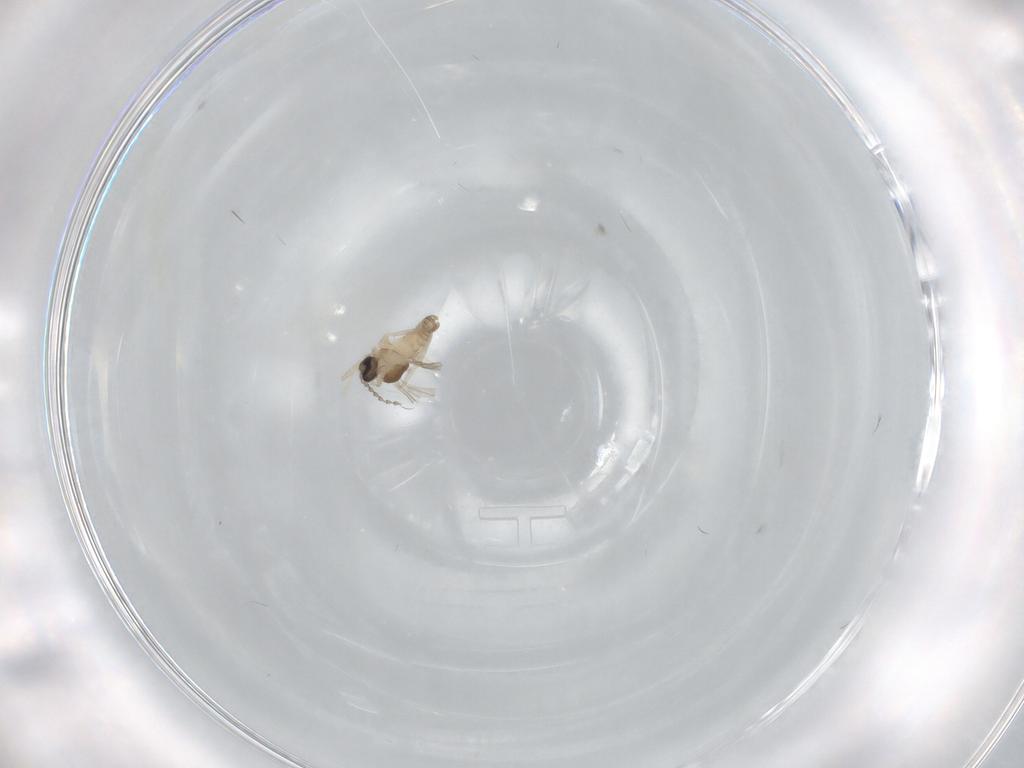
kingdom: Animalia
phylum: Arthropoda
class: Insecta
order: Diptera
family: Cecidomyiidae
